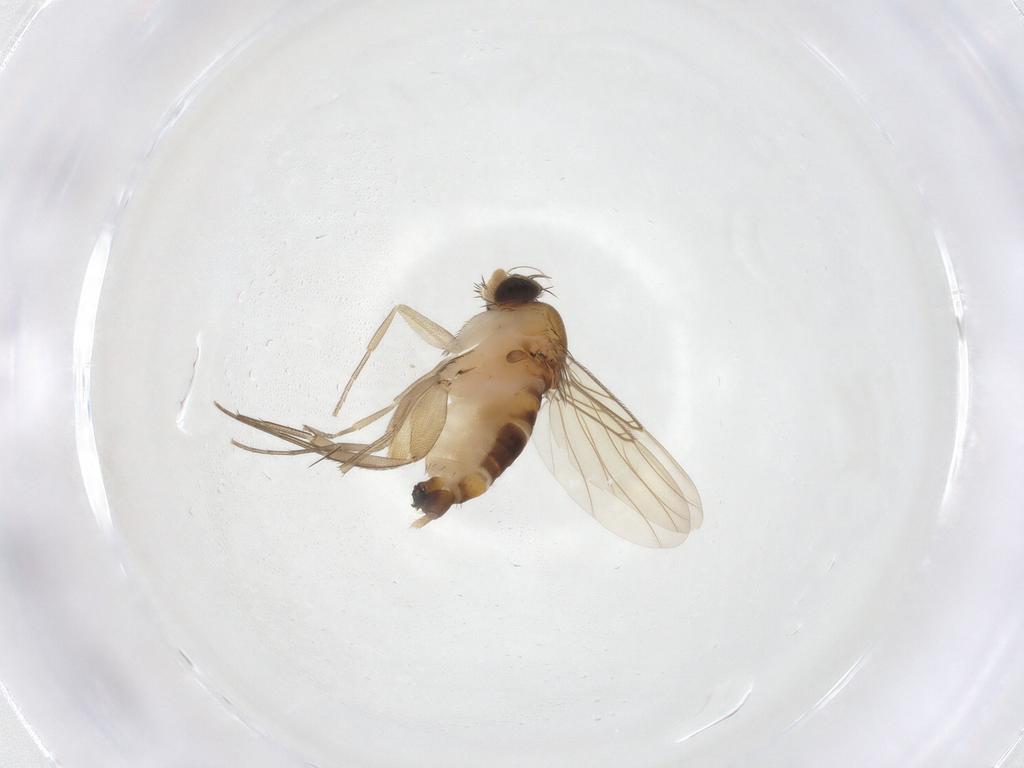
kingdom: Animalia
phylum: Arthropoda
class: Insecta
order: Diptera
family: Phoridae
